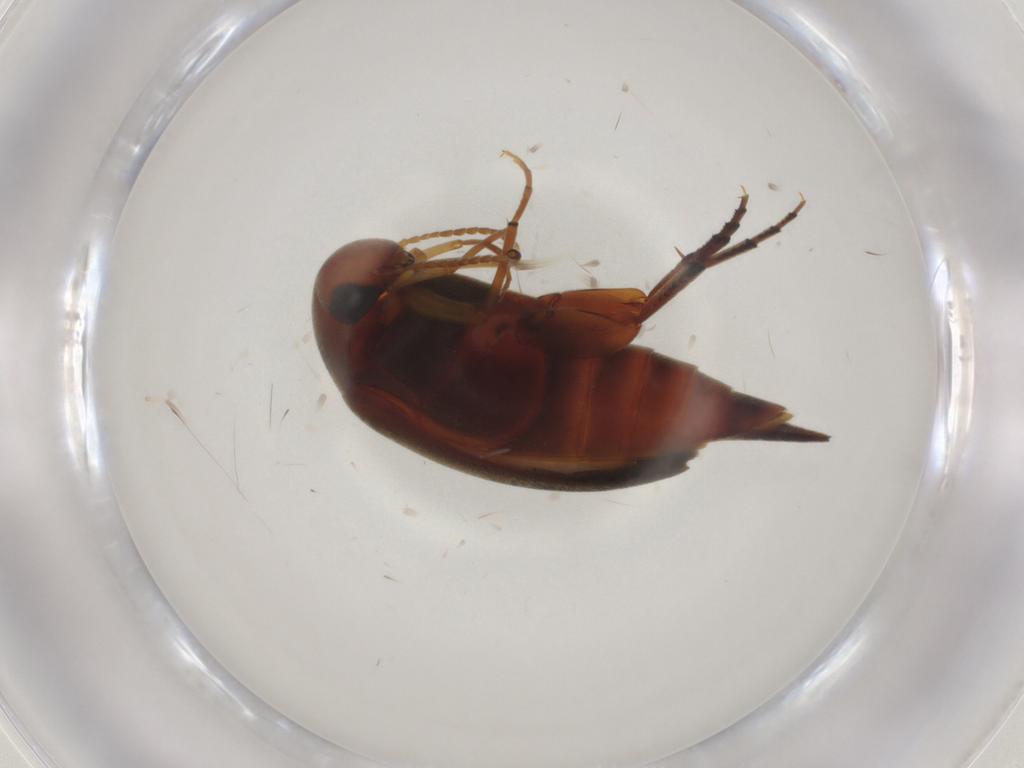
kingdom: Animalia
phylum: Arthropoda
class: Insecta
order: Coleoptera
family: Mordellidae
